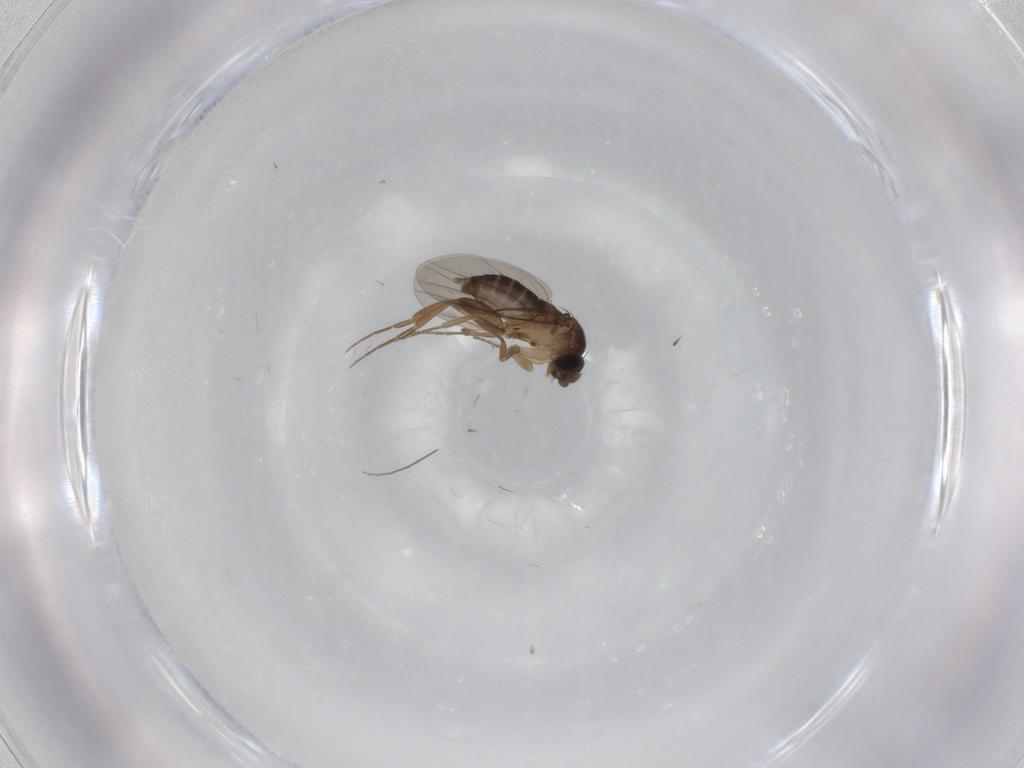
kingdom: Animalia
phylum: Arthropoda
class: Insecta
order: Diptera
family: Chironomidae
